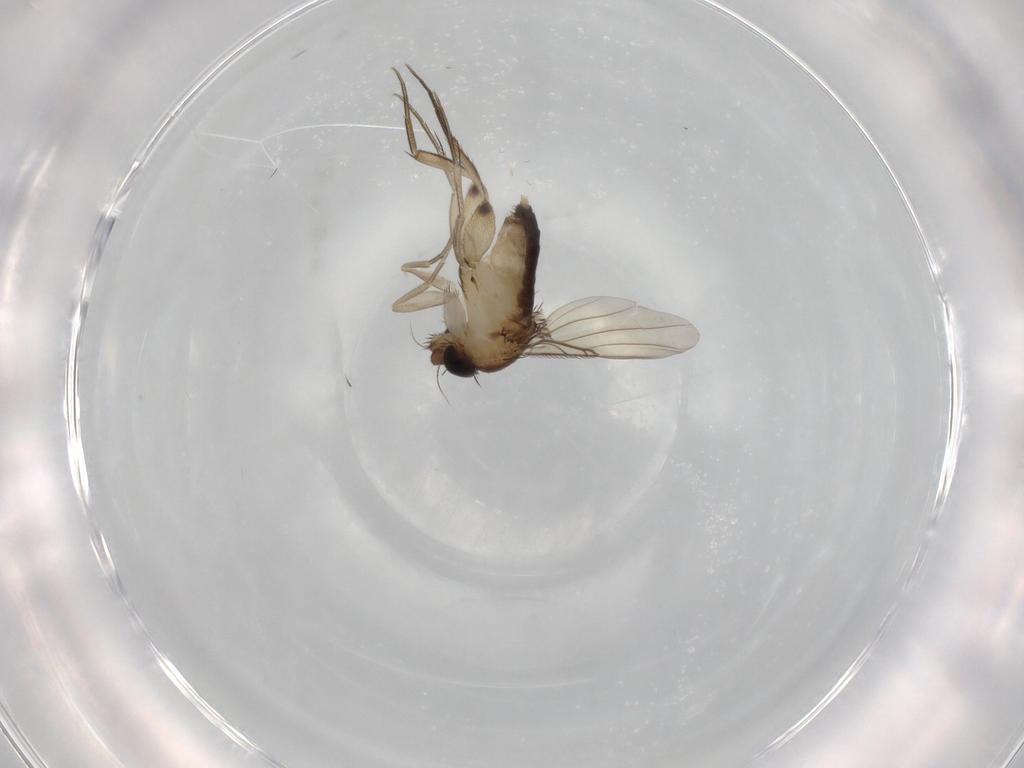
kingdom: Animalia
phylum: Arthropoda
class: Insecta
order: Diptera
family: Phoridae
